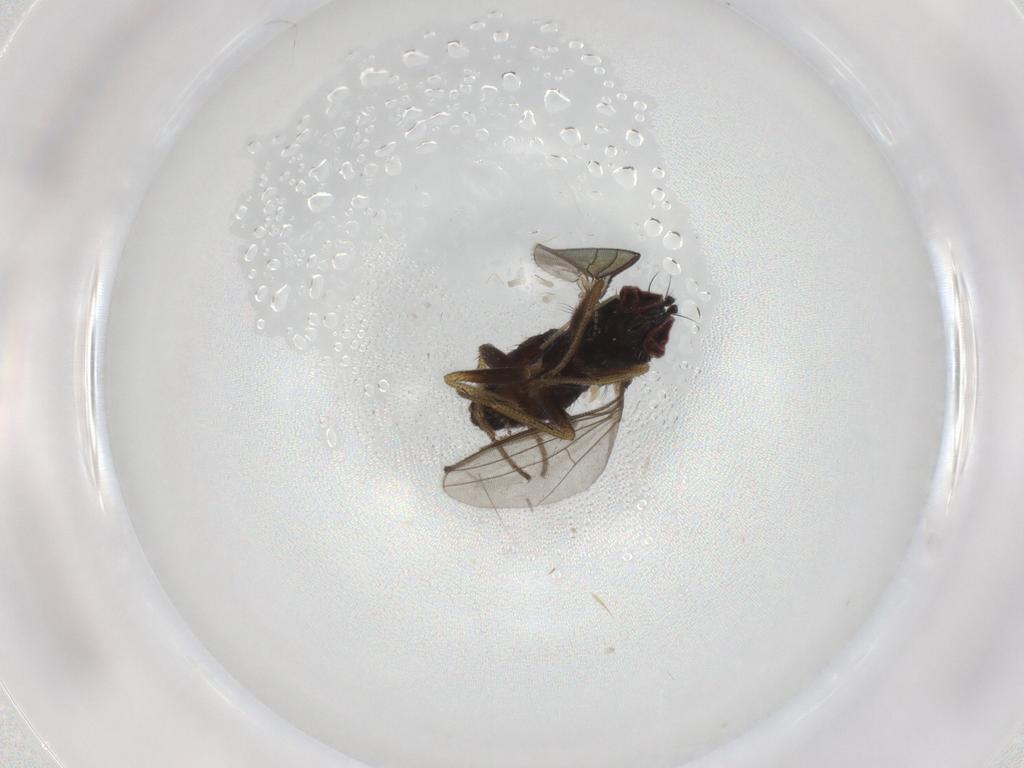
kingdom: Animalia
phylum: Arthropoda
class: Insecta
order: Diptera
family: Psychodidae
